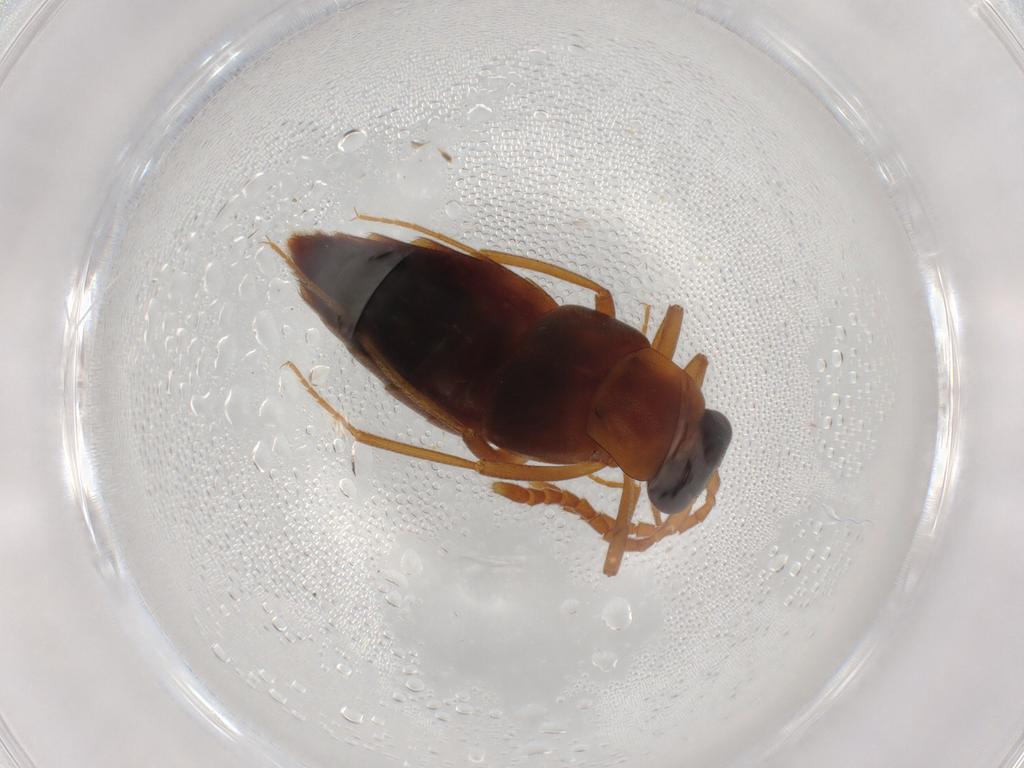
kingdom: Animalia
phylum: Arthropoda
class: Insecta
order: Coleoptera
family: Staphylinidae
